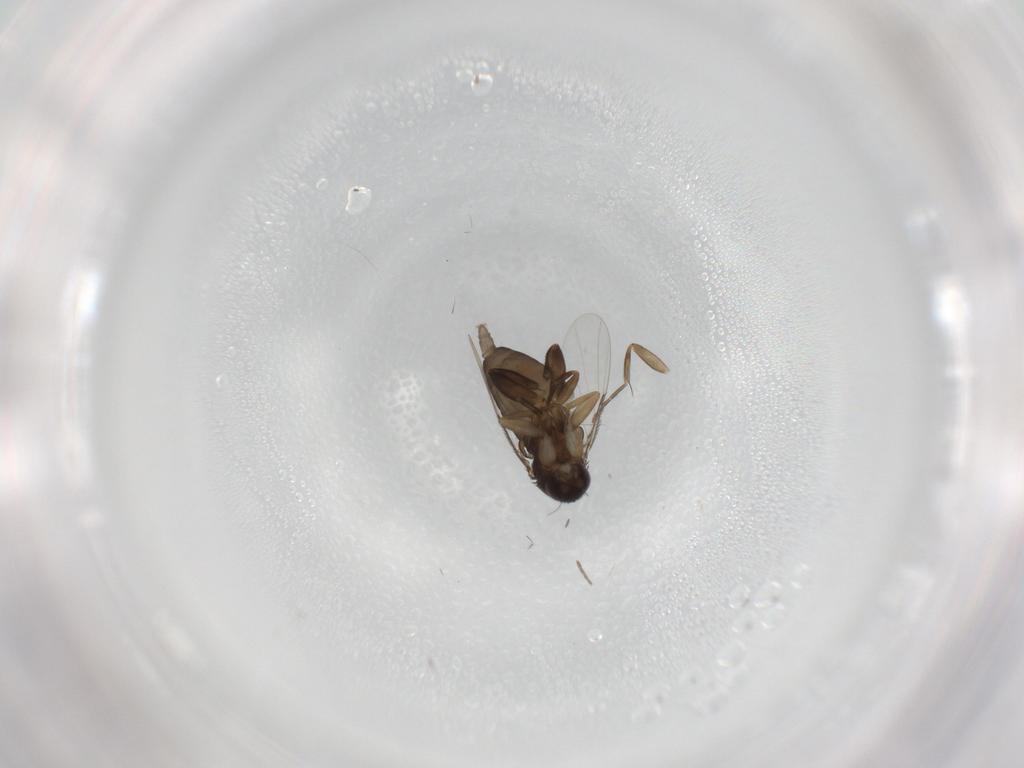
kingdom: Animalia
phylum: Arthropoda
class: Insecta
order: Diptera
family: Phoridae
